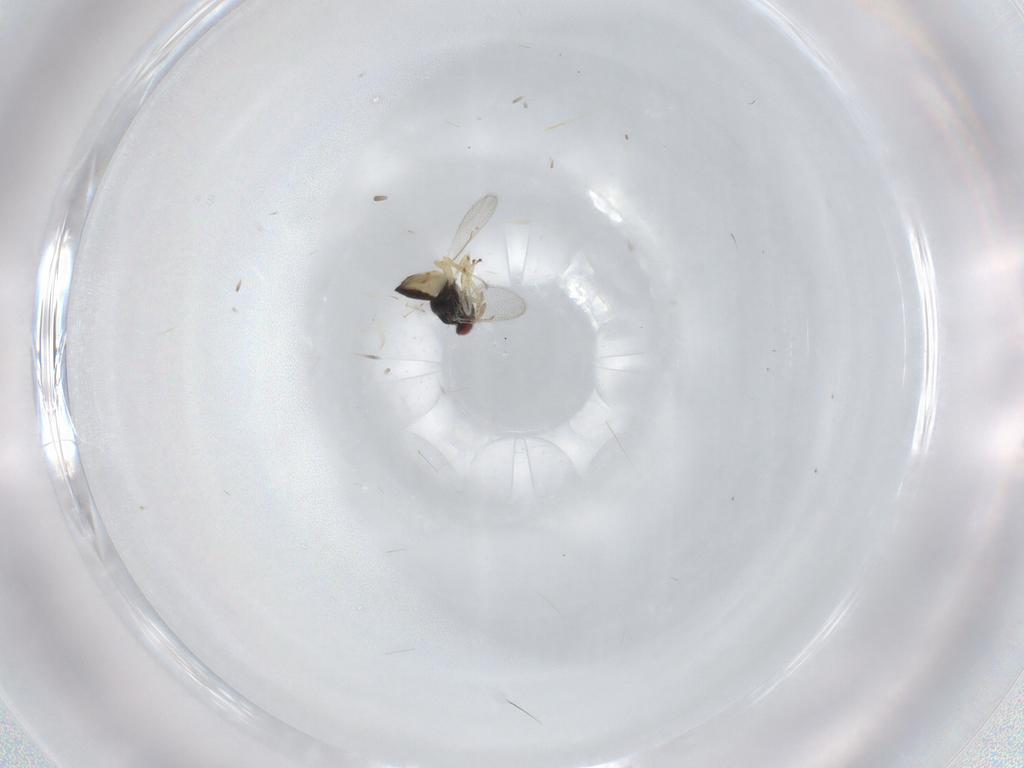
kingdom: Animalia
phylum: Arthropoda
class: Insecta
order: Hymenoptera
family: Eulophidae
